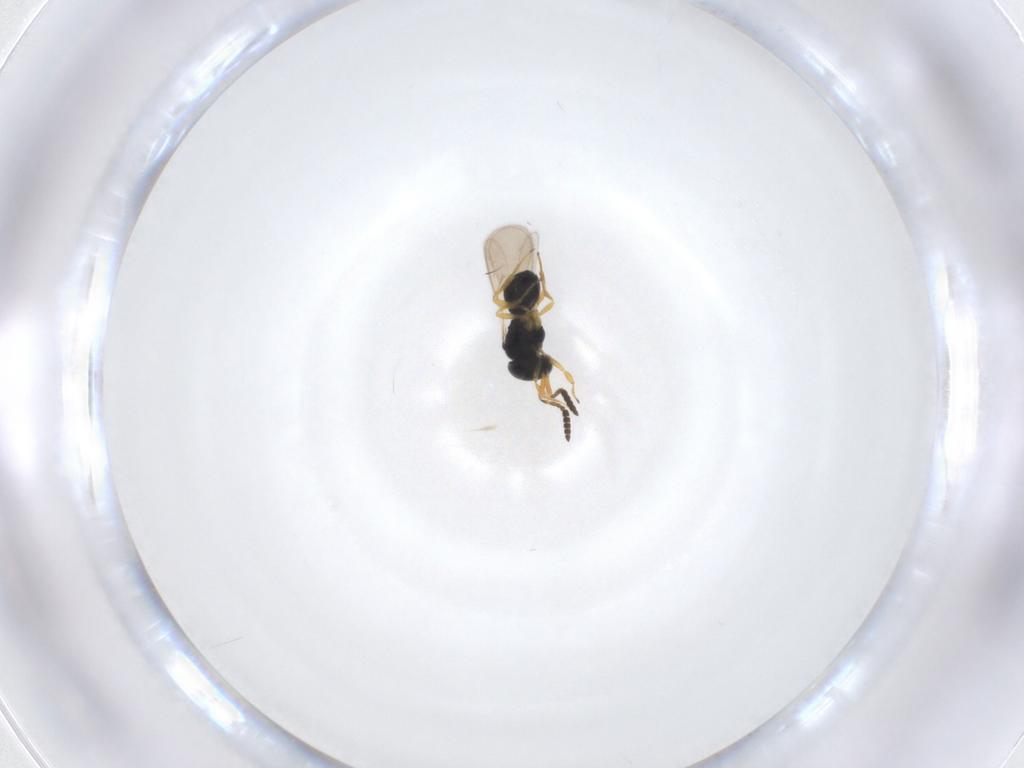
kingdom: Animalia
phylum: Arthropoda
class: Insecta
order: Hymenoptera
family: Scelionidae
